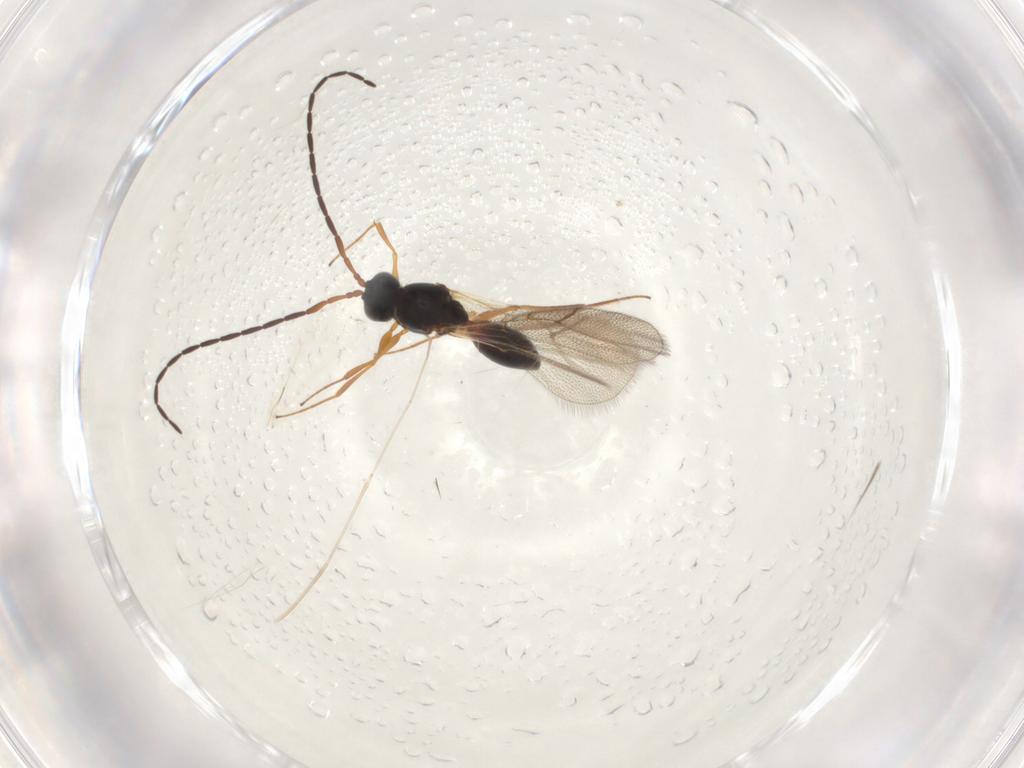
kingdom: Animalia
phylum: Arthropoda
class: Insecta
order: Hymenoptera
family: Figitidae
